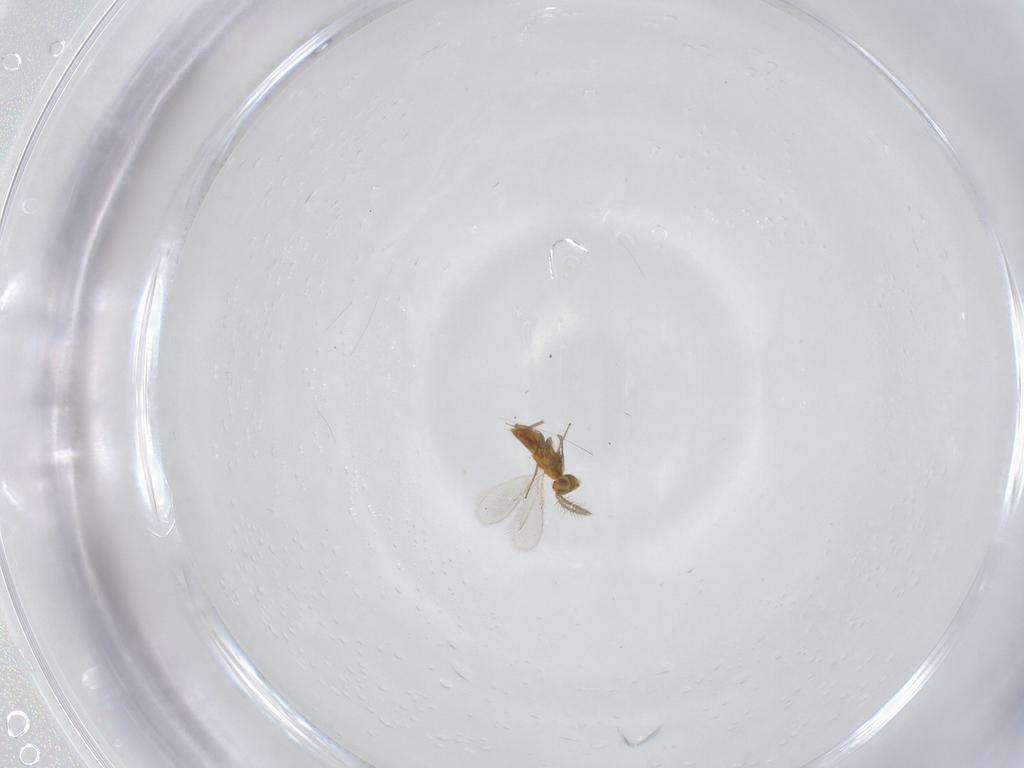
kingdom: Animalia
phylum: Arthropoda
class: Insecta
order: Hymenoptera
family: Aphelinidae
